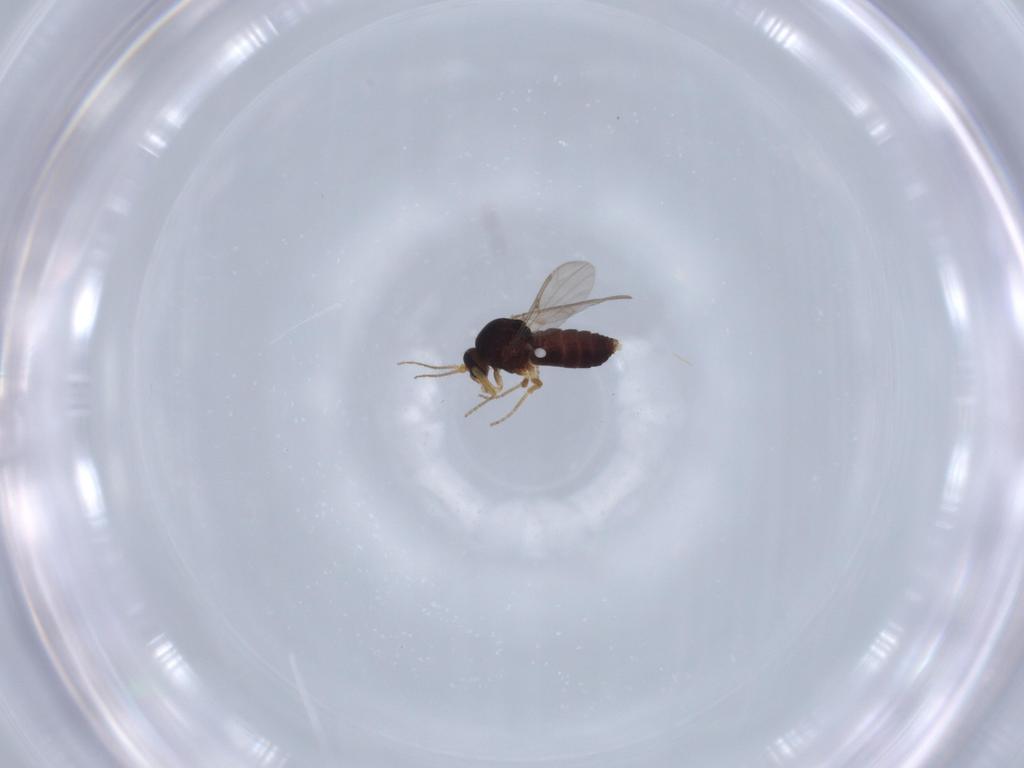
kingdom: Animalia
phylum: Arthropoda
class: Insecta
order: Diptera
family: Ceratopogonidae
